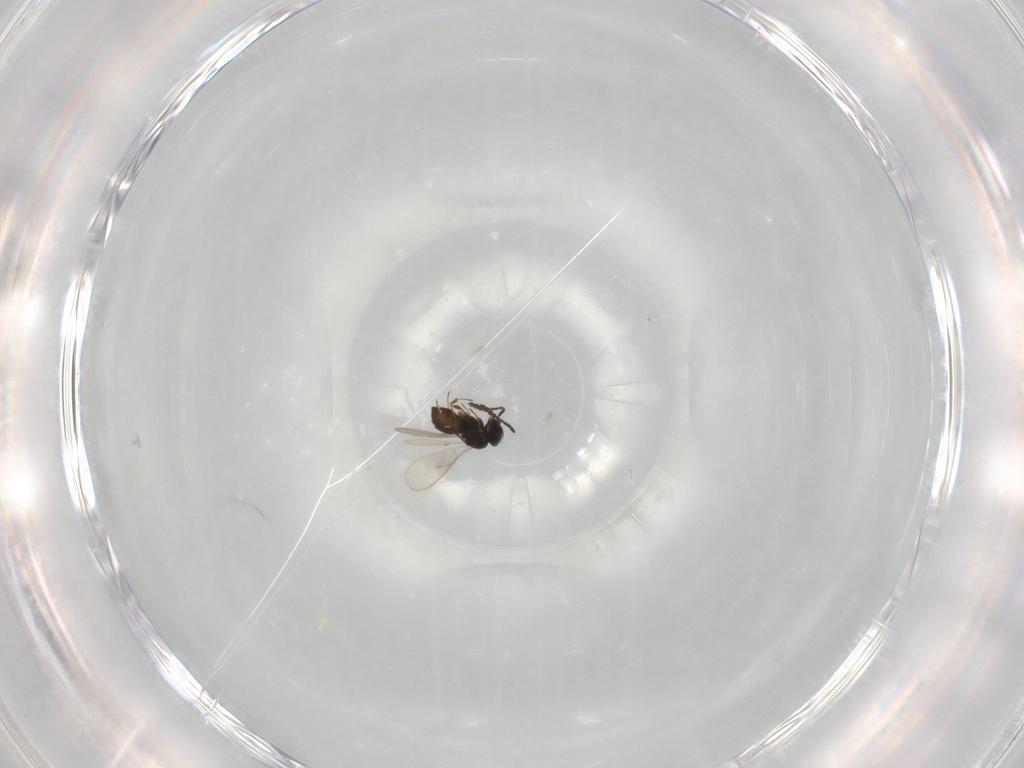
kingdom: Animalia
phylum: Arthropoda
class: Insecta
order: Hymenoptera
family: Scelionidae
